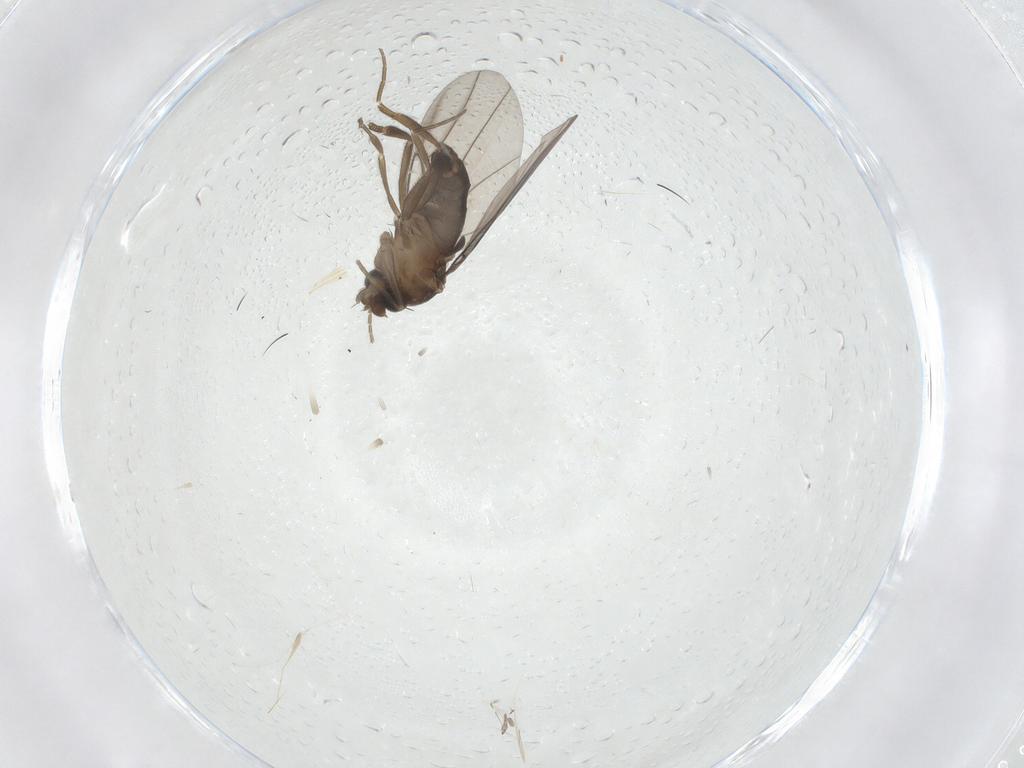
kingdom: Animalia
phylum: Arthropoda
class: Insecta
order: Diptera
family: Phoridae
